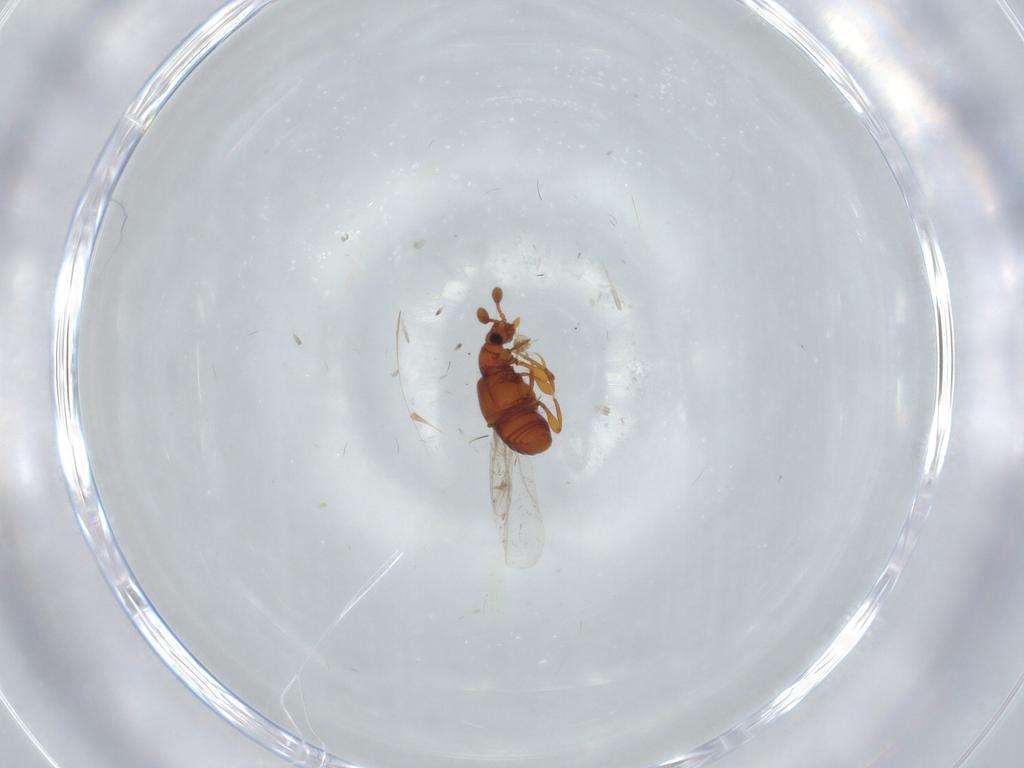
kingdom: Animalia
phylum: Arthropoda
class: Insecta
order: Coleoptera
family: Staphylinidae
